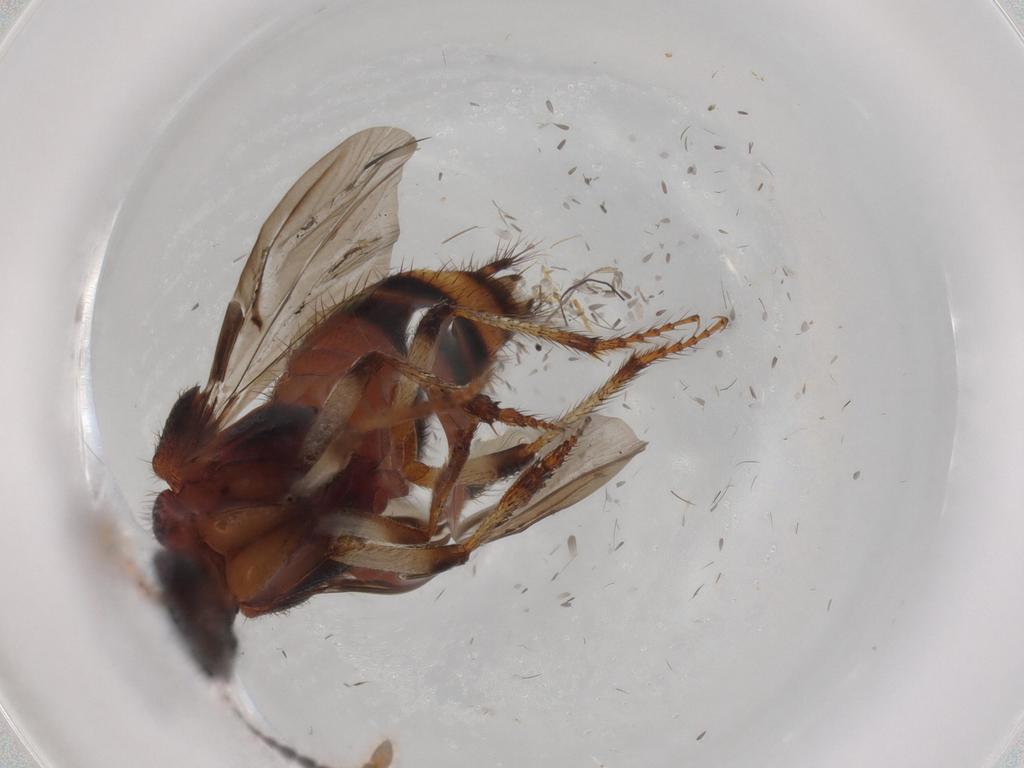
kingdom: Animalia
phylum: Arthropoda
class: Insecta
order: Coleoptera
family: Staphylinidae
